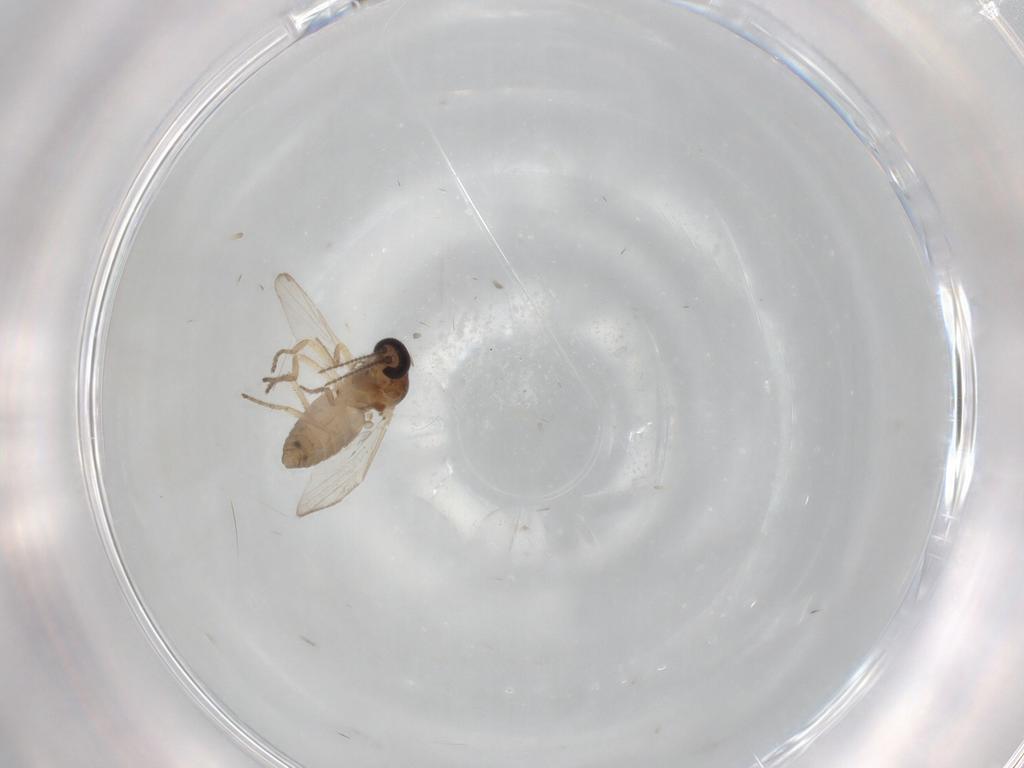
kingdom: Animalia
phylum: Arthropoda
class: Insecta
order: Diptera
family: Ceratopogonidae
